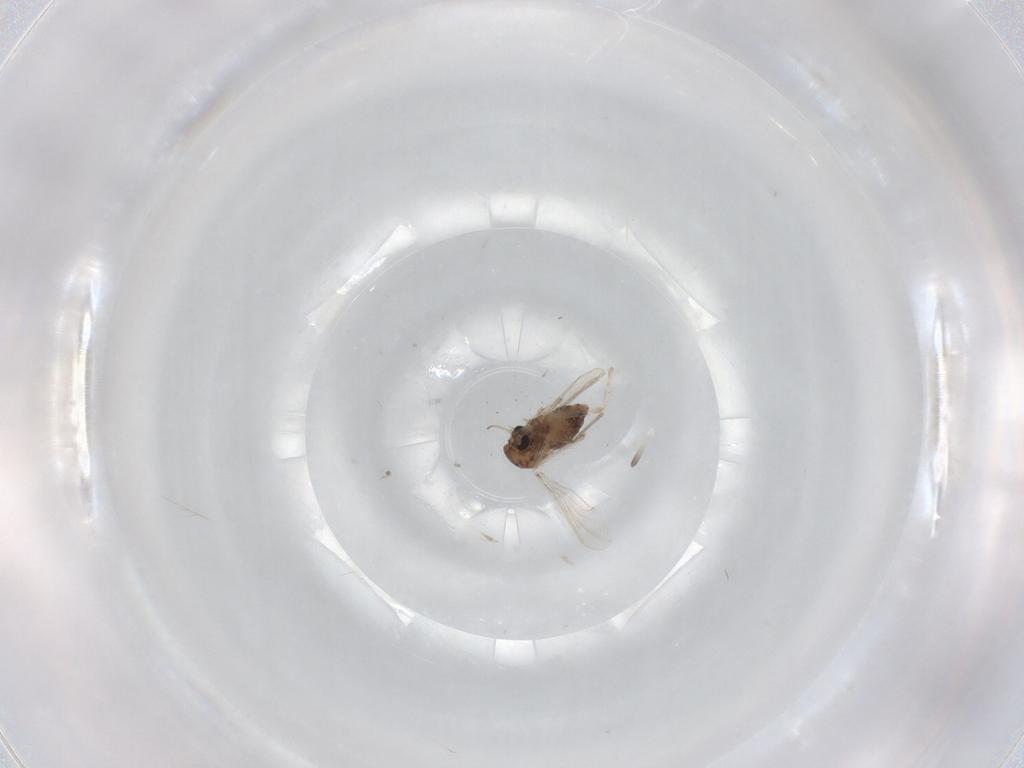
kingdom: Animalia
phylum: Arthropoda
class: Insecta
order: Diptera
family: Chironomidae
